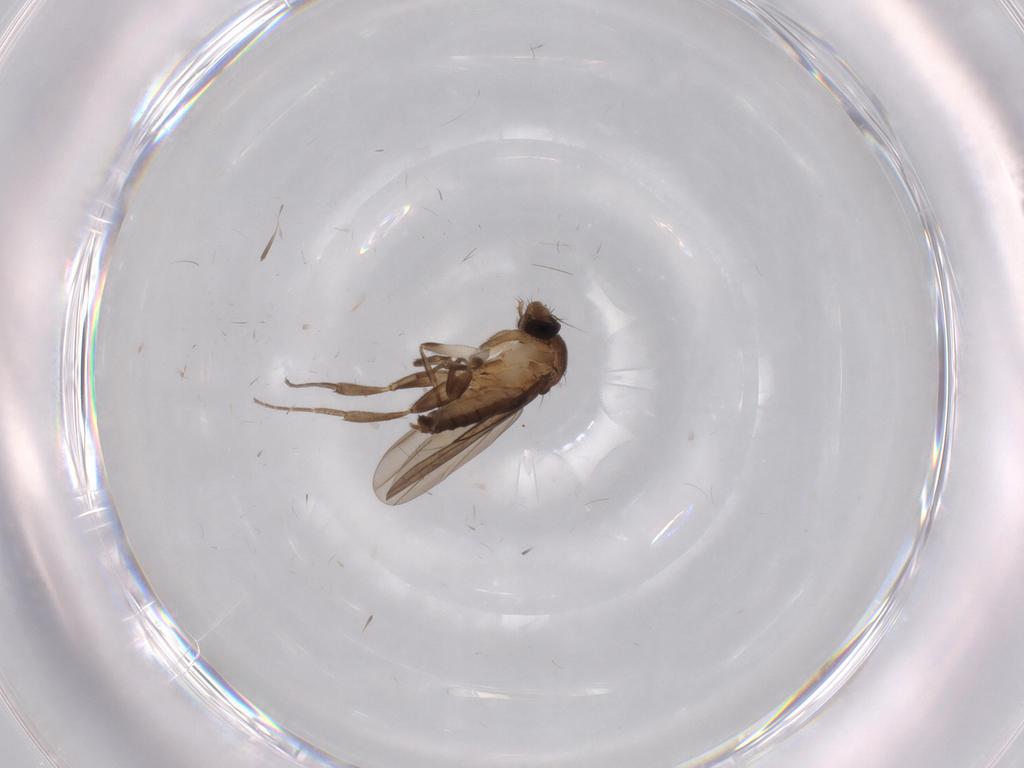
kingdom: Animalia
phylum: Arthropoda
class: Insecta
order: Diptera
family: Limoniidae
